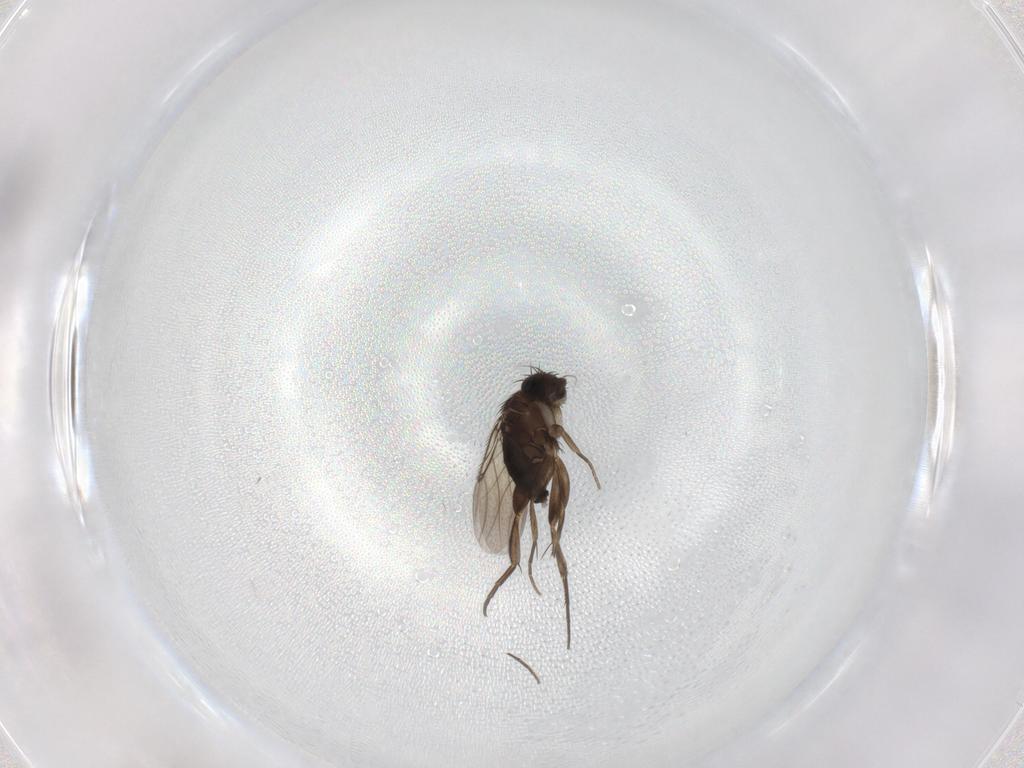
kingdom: Animalia
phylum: Arthropoda
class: Insecta
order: Diptera
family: Phoridae
